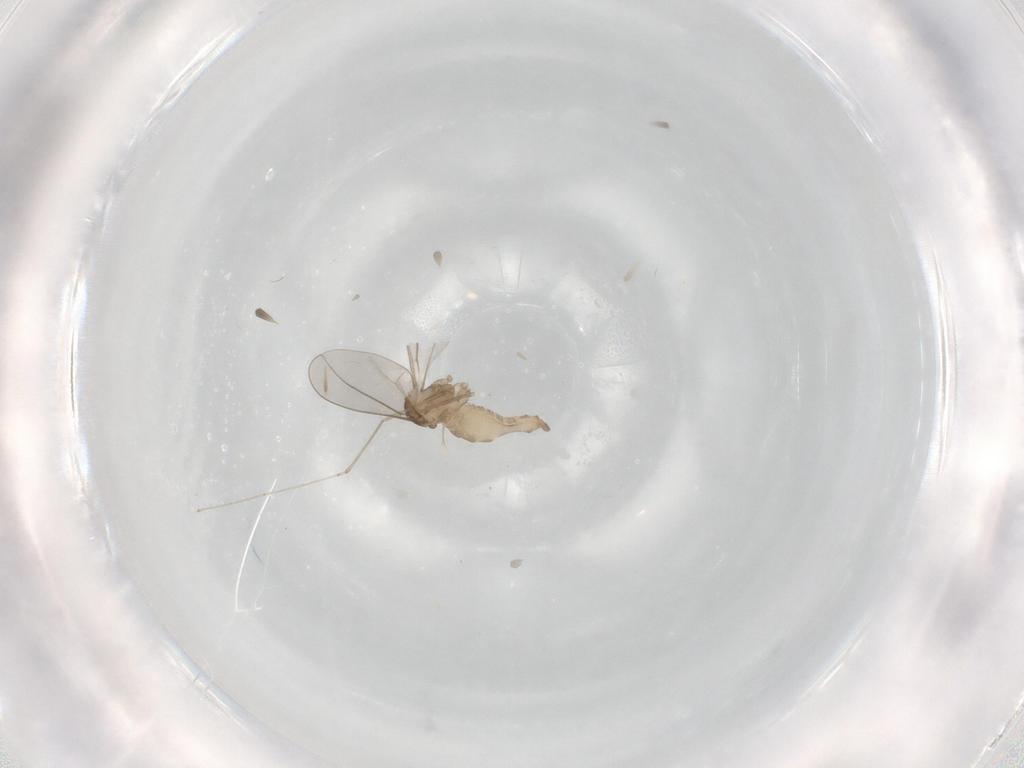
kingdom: Animalia
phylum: Arthropoda
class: Insecta
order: Diptera
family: Cecidomyiidae
